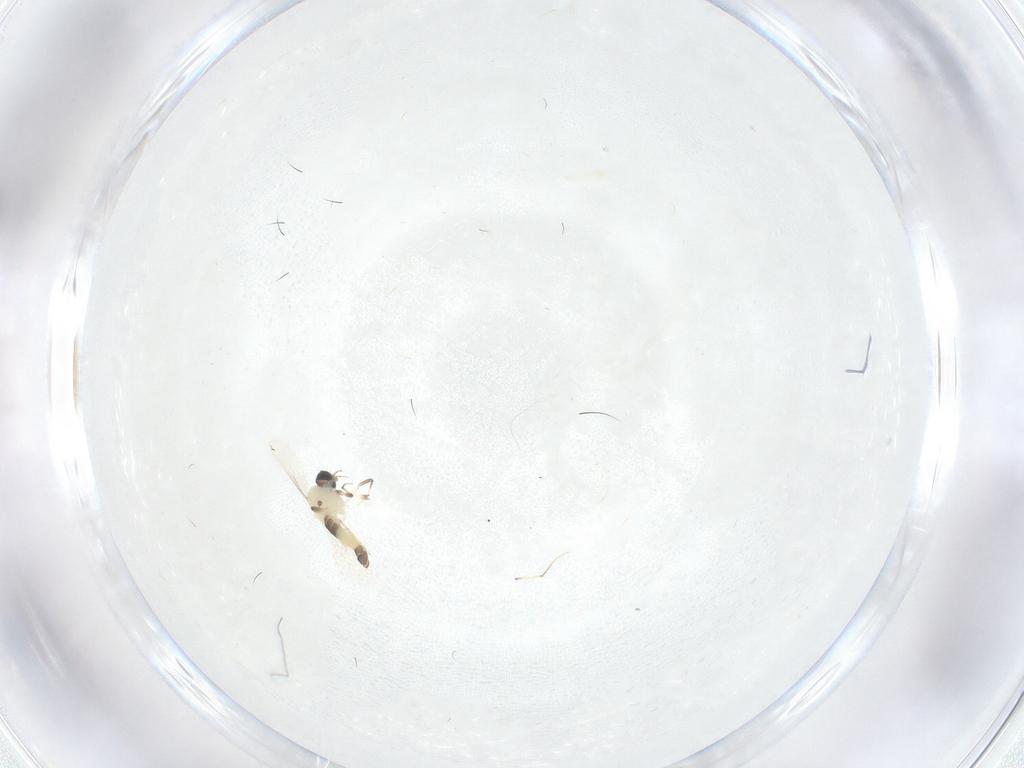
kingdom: Animalia
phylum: Arthropoda
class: Insecta
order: Diptera
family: Chironomidae
